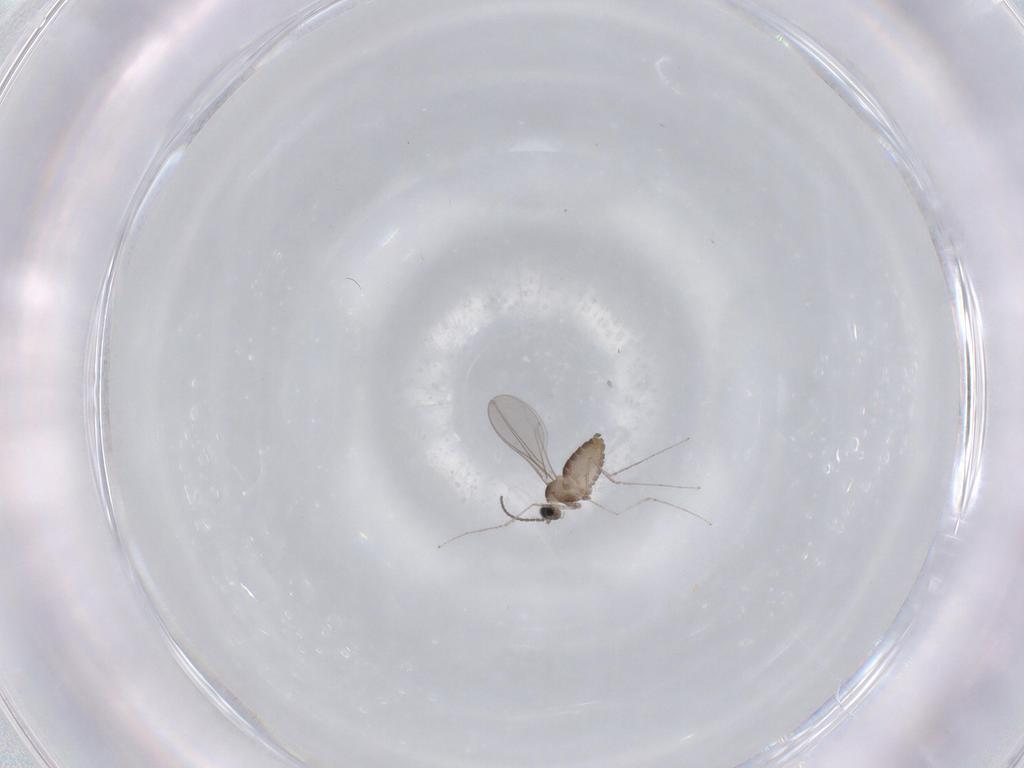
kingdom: Animalia
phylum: Arthropoda
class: Insecta
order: Diptera
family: Cecidomyiidae
